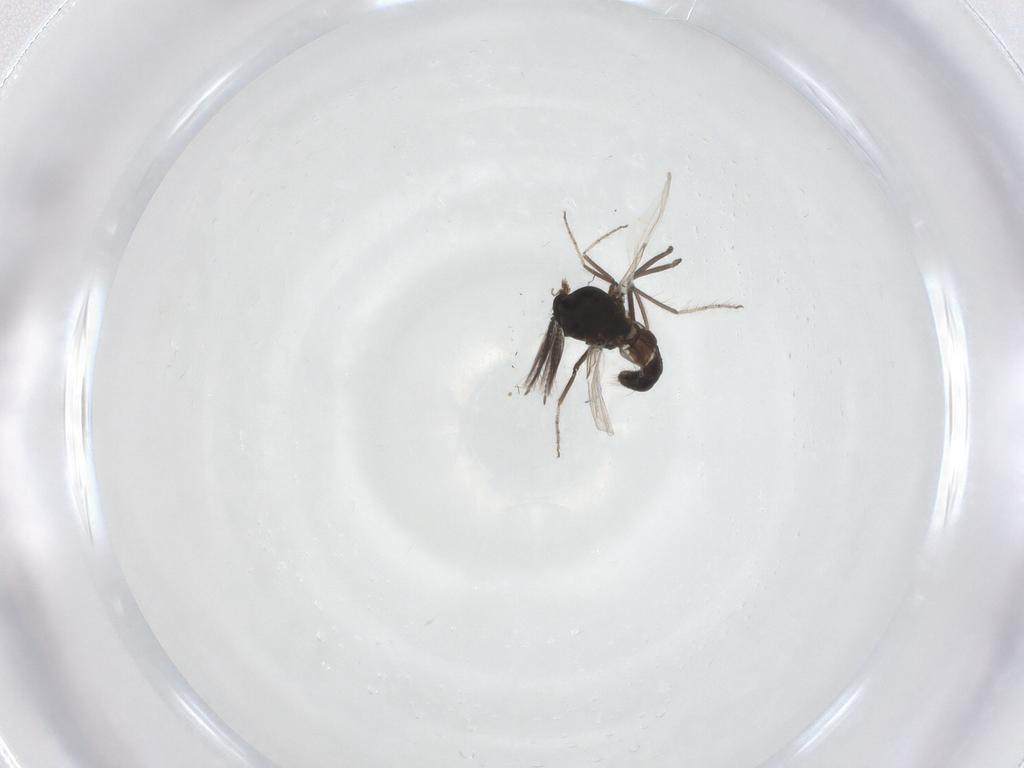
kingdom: Animalia
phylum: Arthropoda
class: Insecta
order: Diptera
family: Ceratopogonidae
